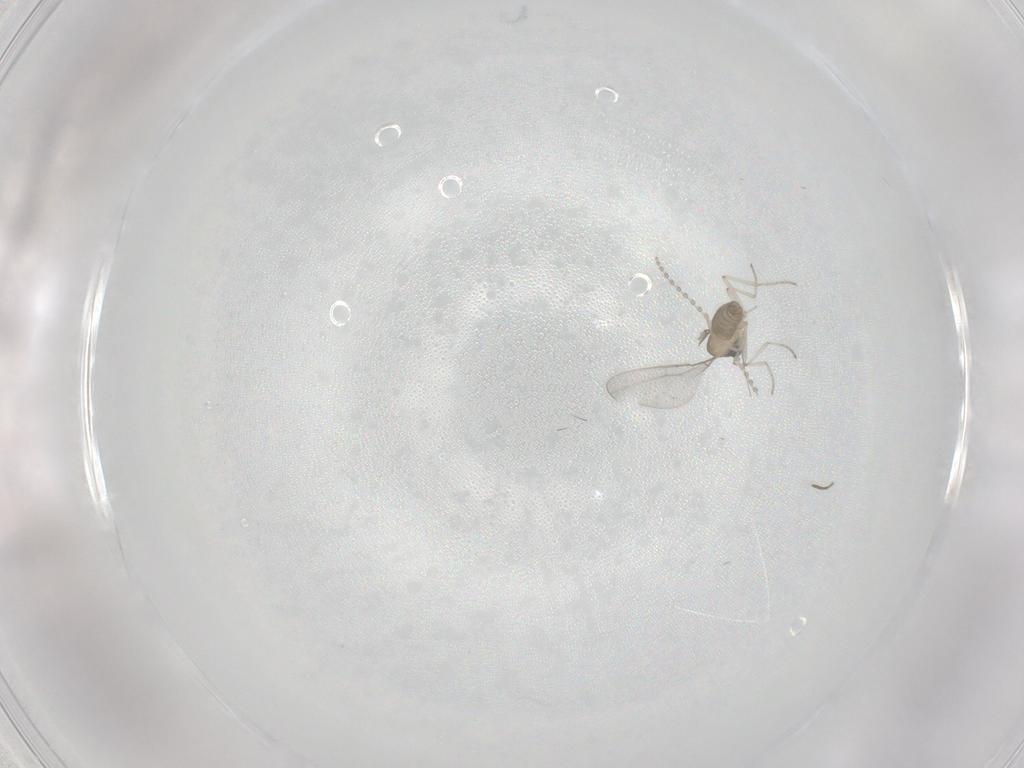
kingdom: Animalia
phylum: Arthropoda
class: Insecta
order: Diptera
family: Cecidomyiidae
